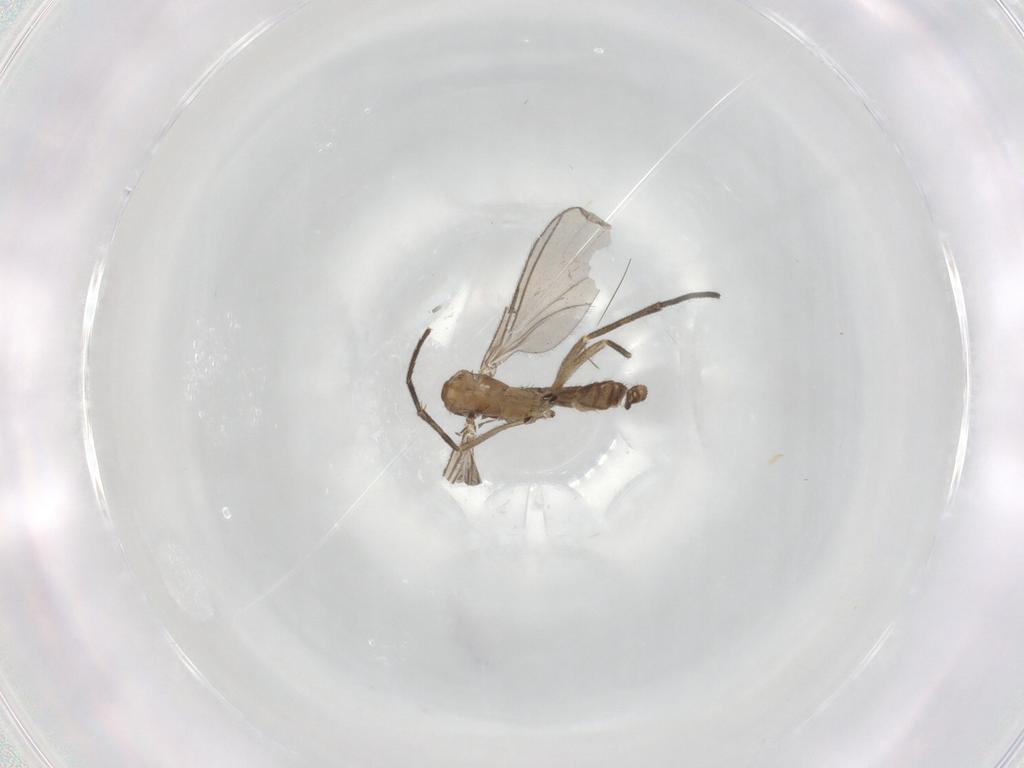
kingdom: Animalia
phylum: Arthropoda
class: Insecta
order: Diptera
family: Sciaridae
